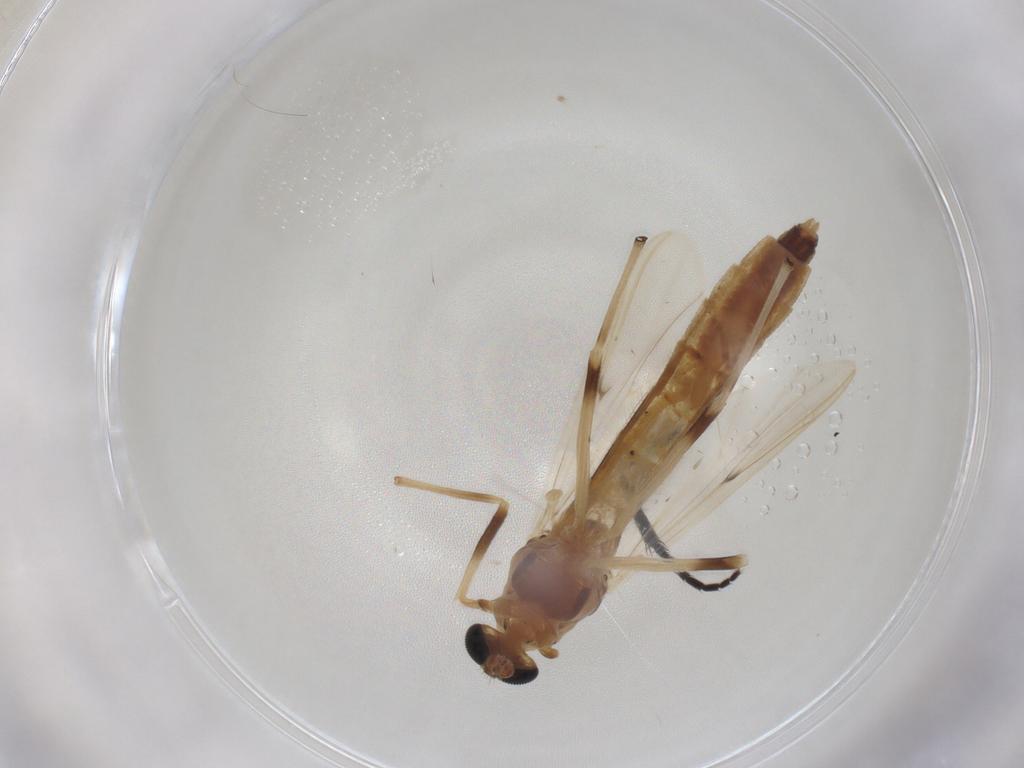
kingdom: Animalia
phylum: Arthropoda
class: Insecta
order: Diptera
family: Muscidae
